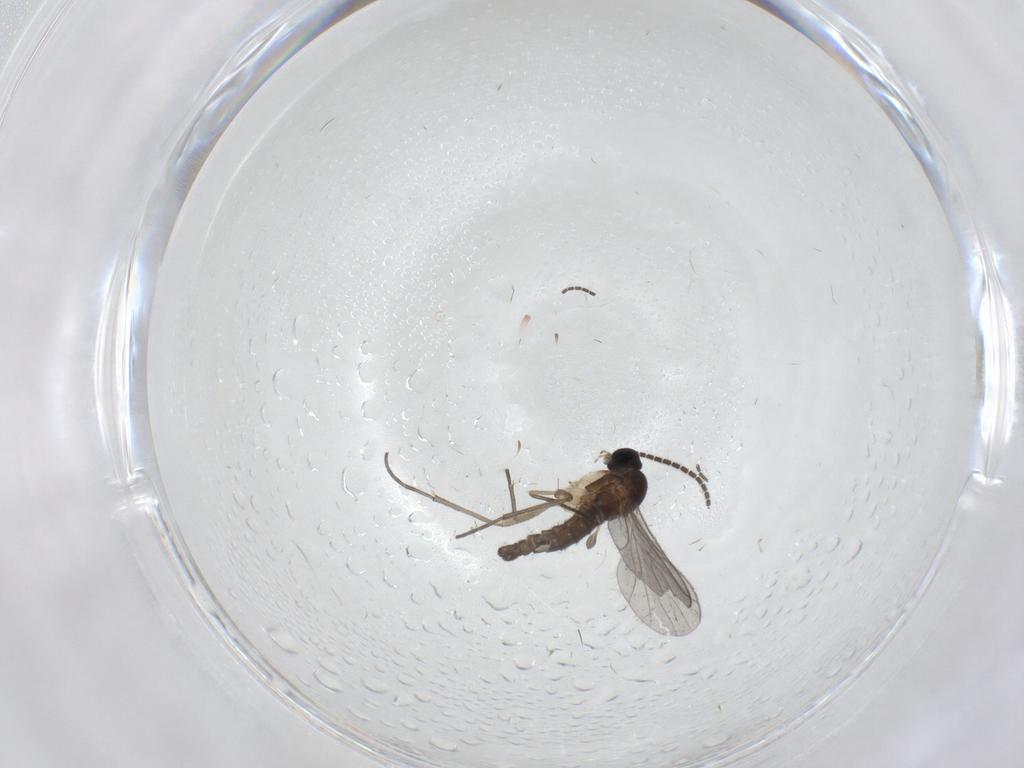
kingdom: Animalia
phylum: Arthropoda
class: Insecta
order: Diptera
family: Sciaridae
